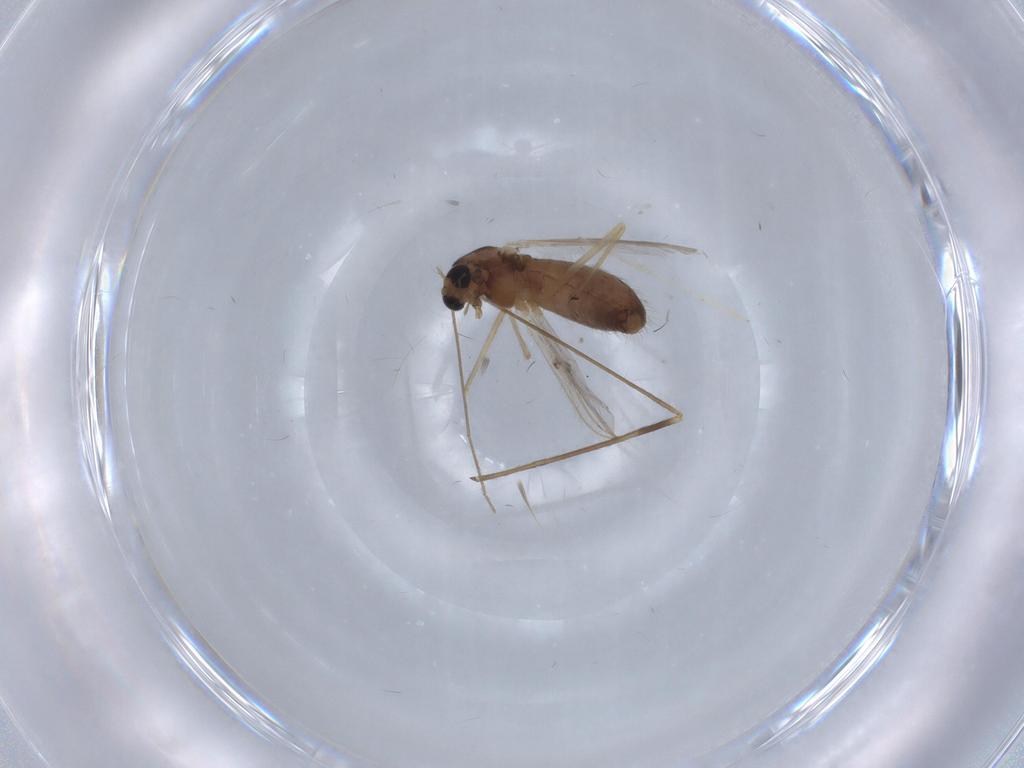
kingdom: Animalia
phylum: Arthropoda
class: Insecta
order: Diptera
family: Chironomidae
